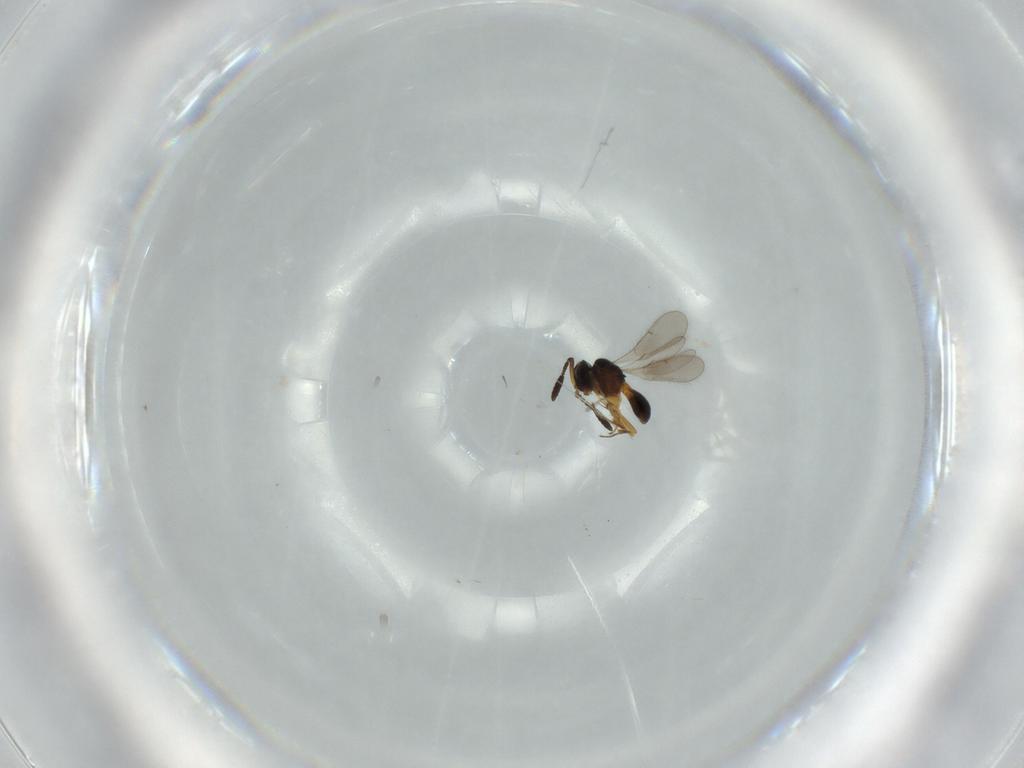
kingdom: Animalia
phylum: Arthropoda
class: Insecta
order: Hymenoptera
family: Scelionidae
